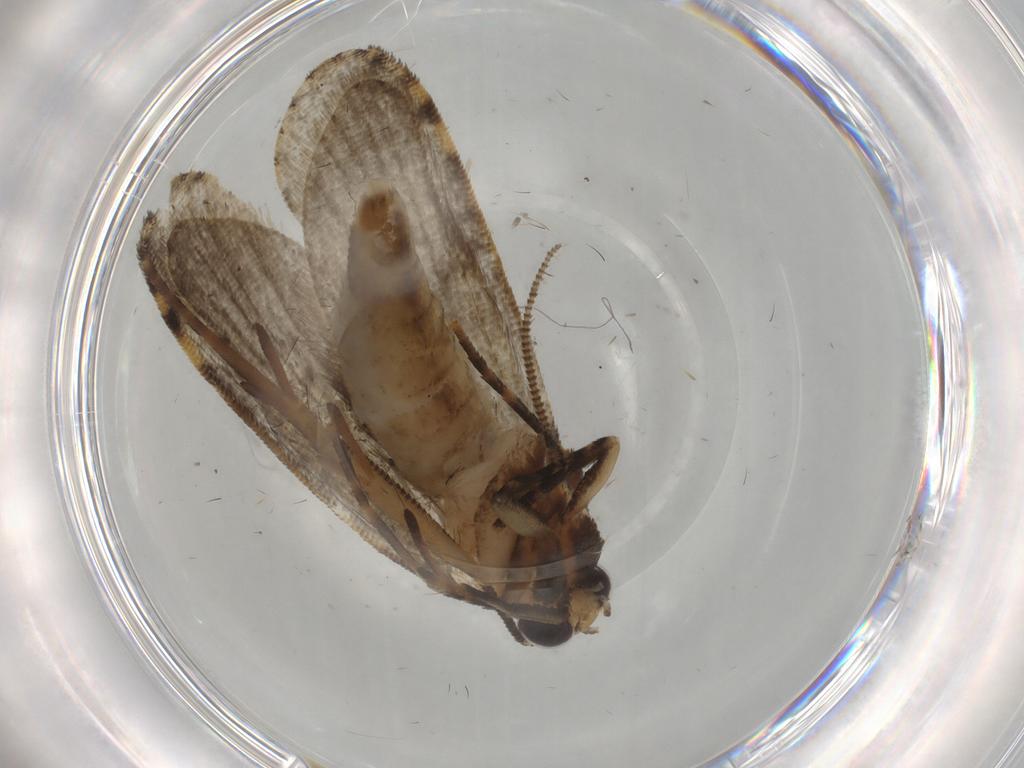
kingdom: Animalia
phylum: Arthropoda
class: Insecta
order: Lepidoptera
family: Tineidae
